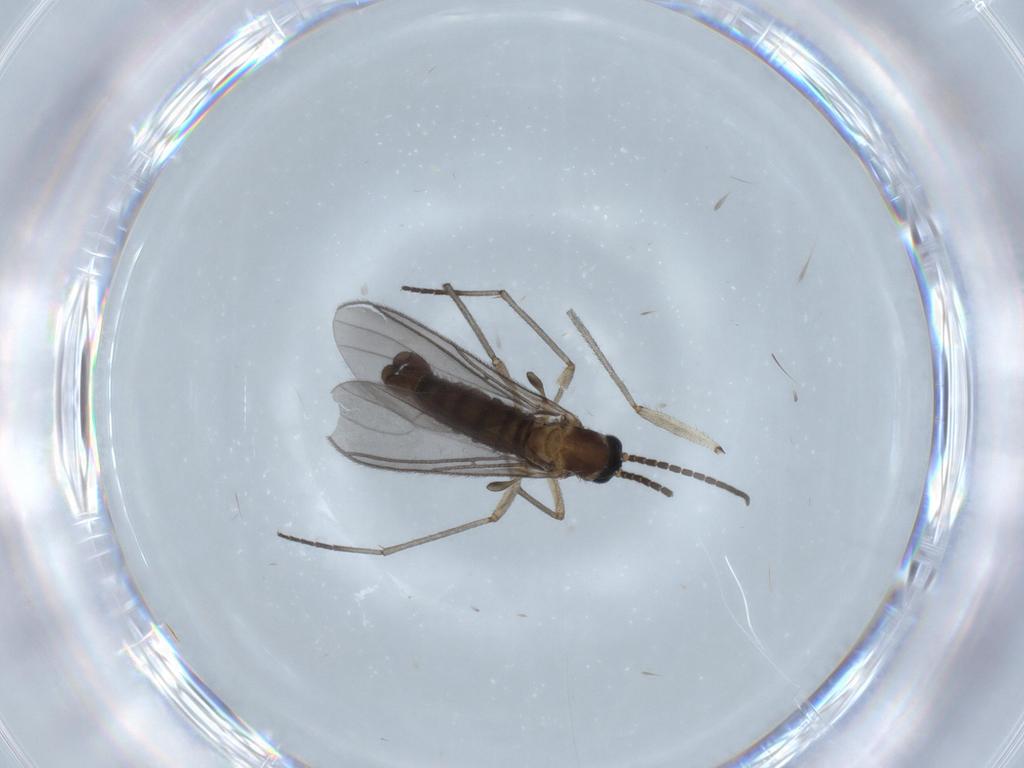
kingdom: Animalia
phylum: Arthropoda
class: Insecta
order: Diptera
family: Sciaridae
